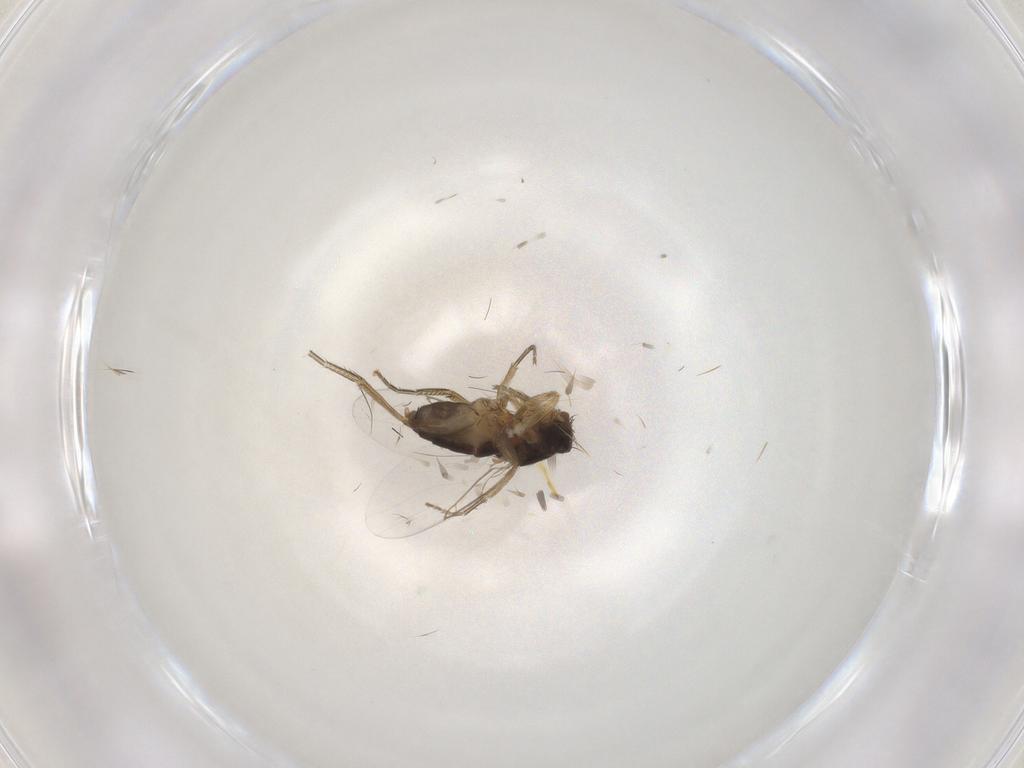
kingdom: Animalia
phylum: Arthropoda
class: Insecta
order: Diptera
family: Phoridae
